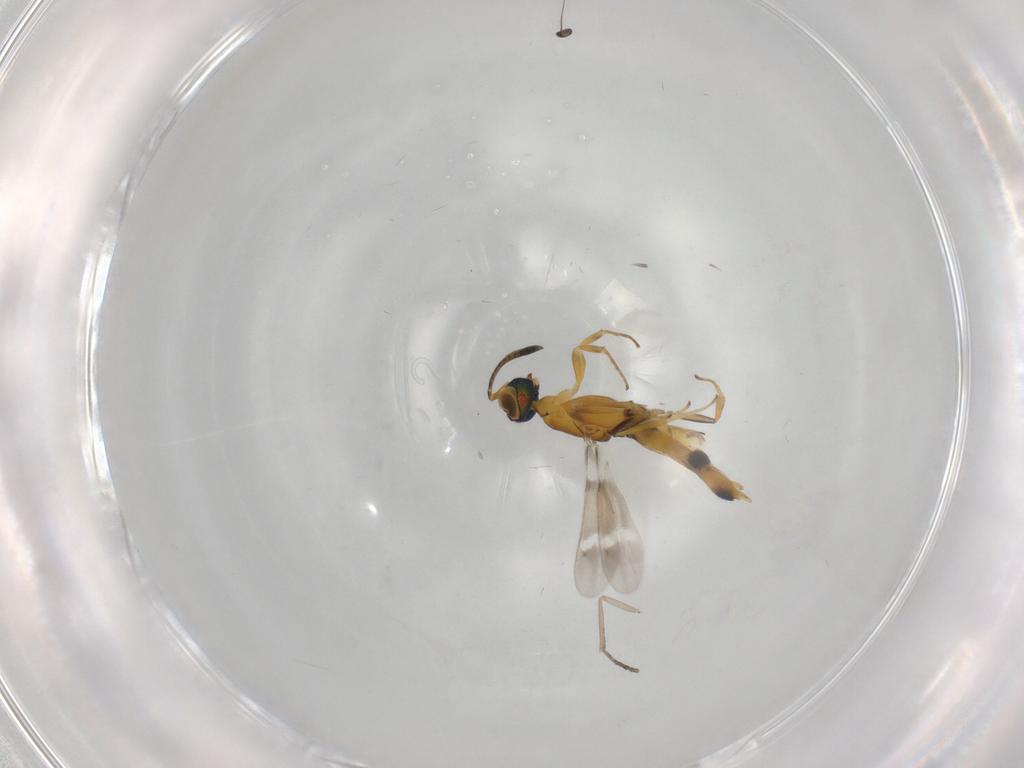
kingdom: Animalia
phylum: Arthropoda
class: Insecta
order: Hymenoptera
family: Eupelmidae
